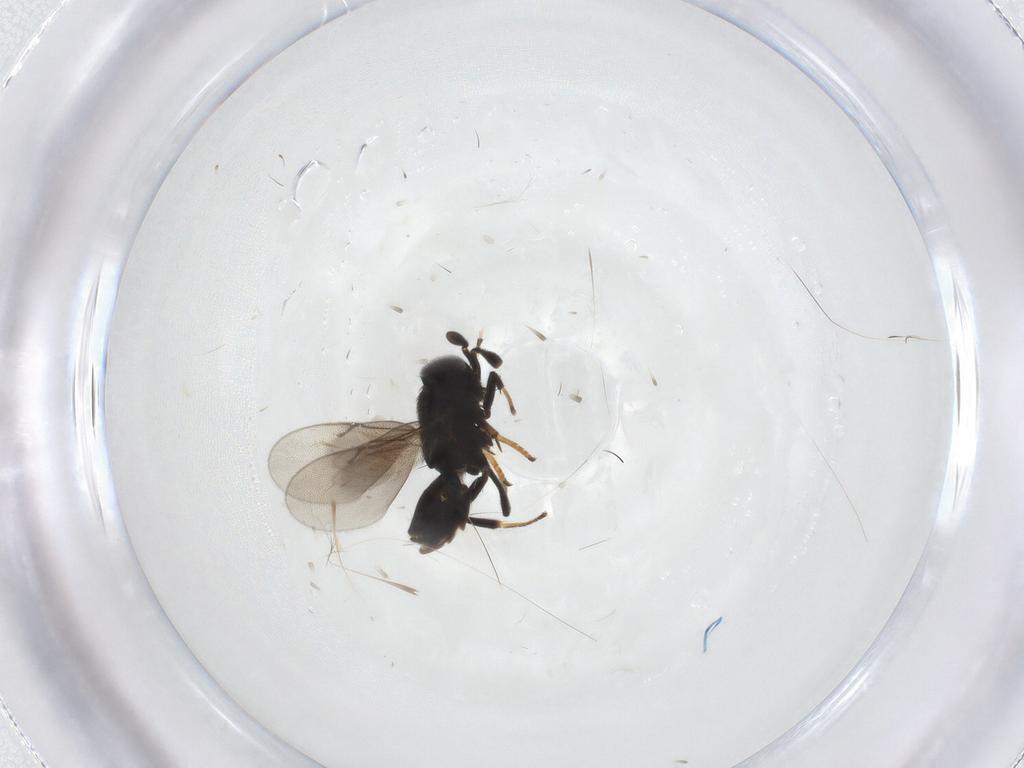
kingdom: Animalia
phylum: Arthropoda
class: Insecta
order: Hymenoptera
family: Encyrtidae
